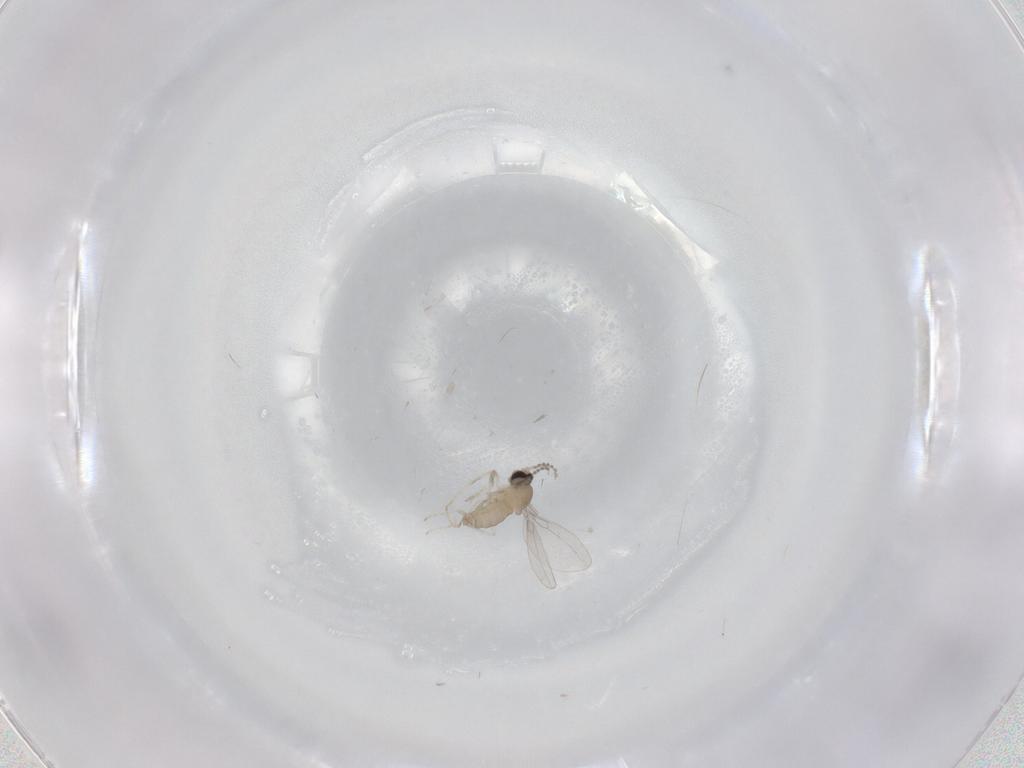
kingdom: Animalia
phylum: Arthropoda
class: Insecta
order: Diptera
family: Cecidomyiidae
